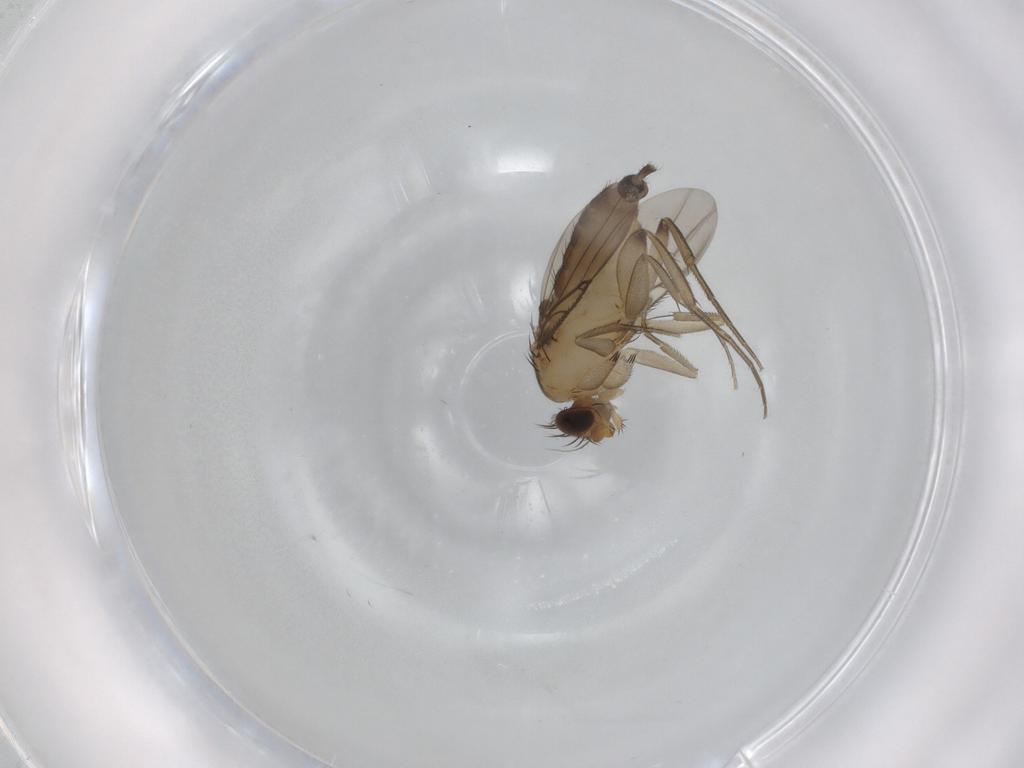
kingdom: Animalia
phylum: Arthropoda
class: Insecta
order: Diptera
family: Phoridae
